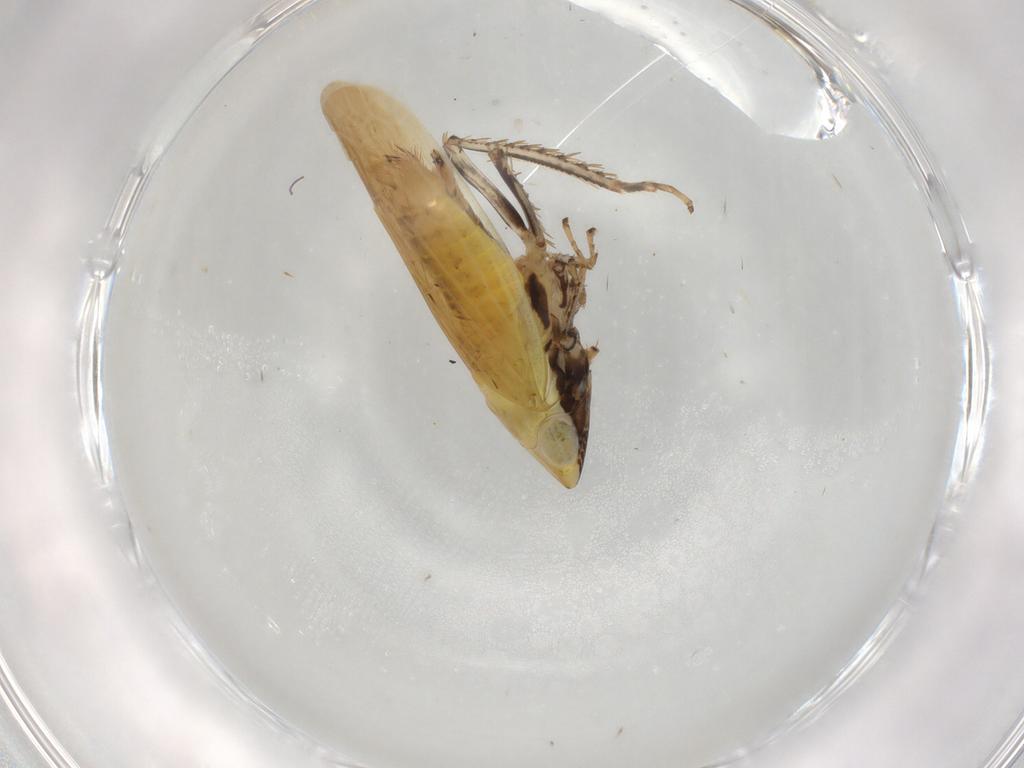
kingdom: Animalia
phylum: Arthropoda
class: Insecta
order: Hemiptera
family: Cicadellidae
